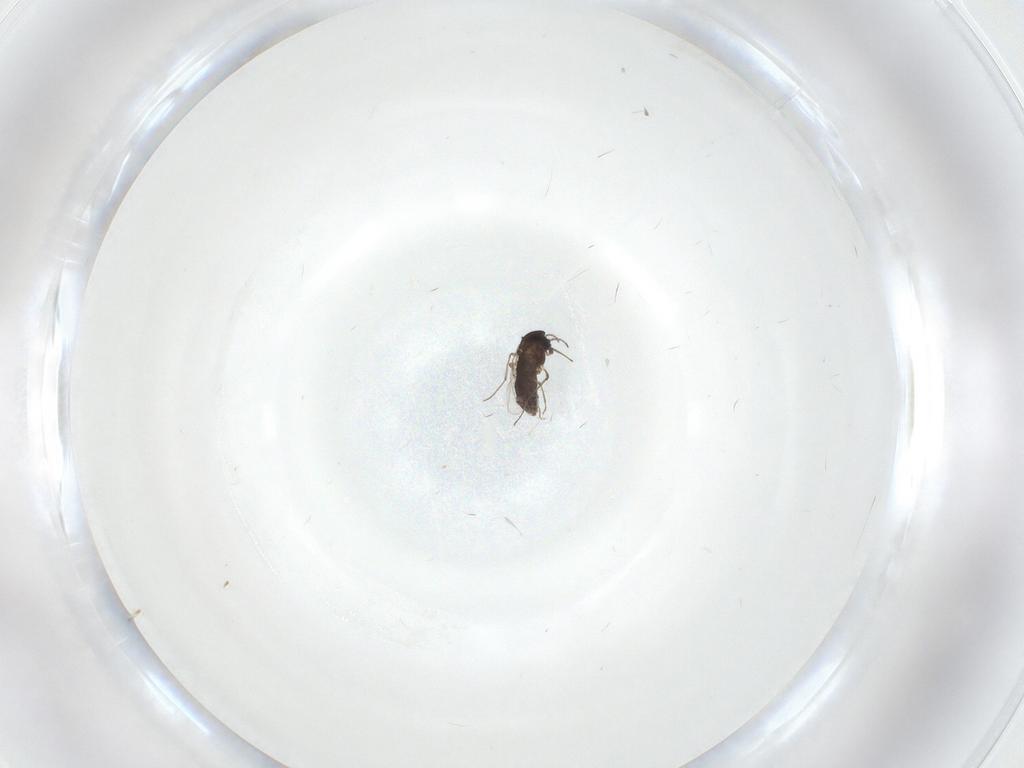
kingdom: Animalia
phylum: Arthropoda
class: Insecta
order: Diptera
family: Chironomidae
